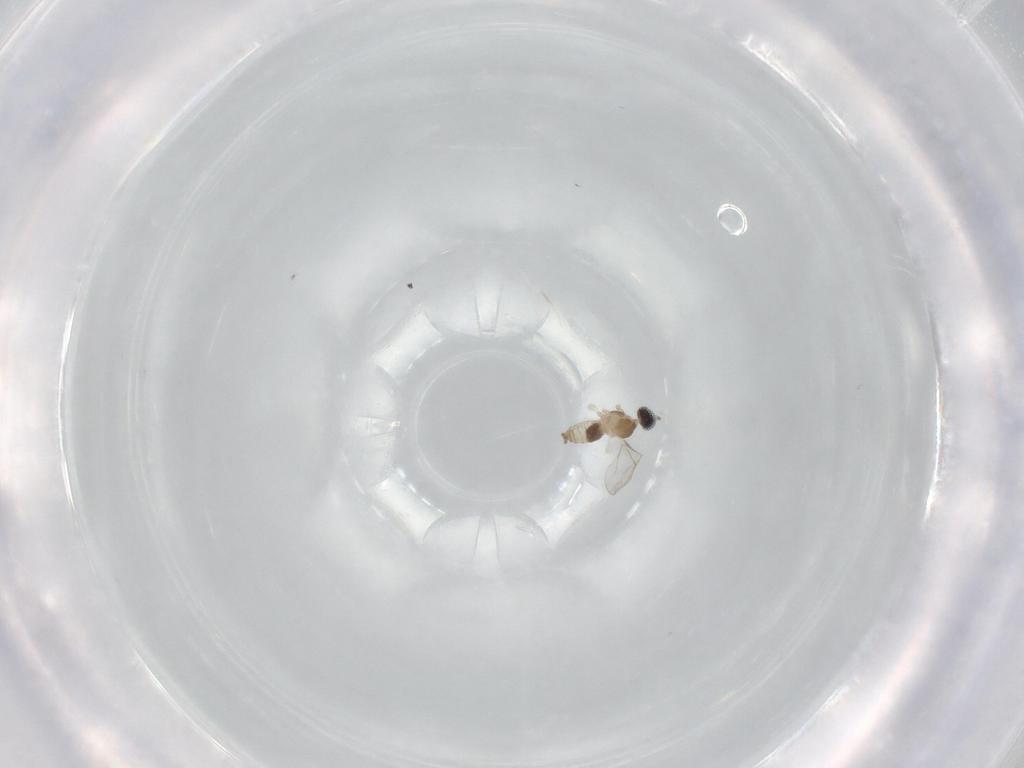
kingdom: Animalia
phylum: Arthropoda
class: Insecta
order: Diptera
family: Cecidomyiidae
